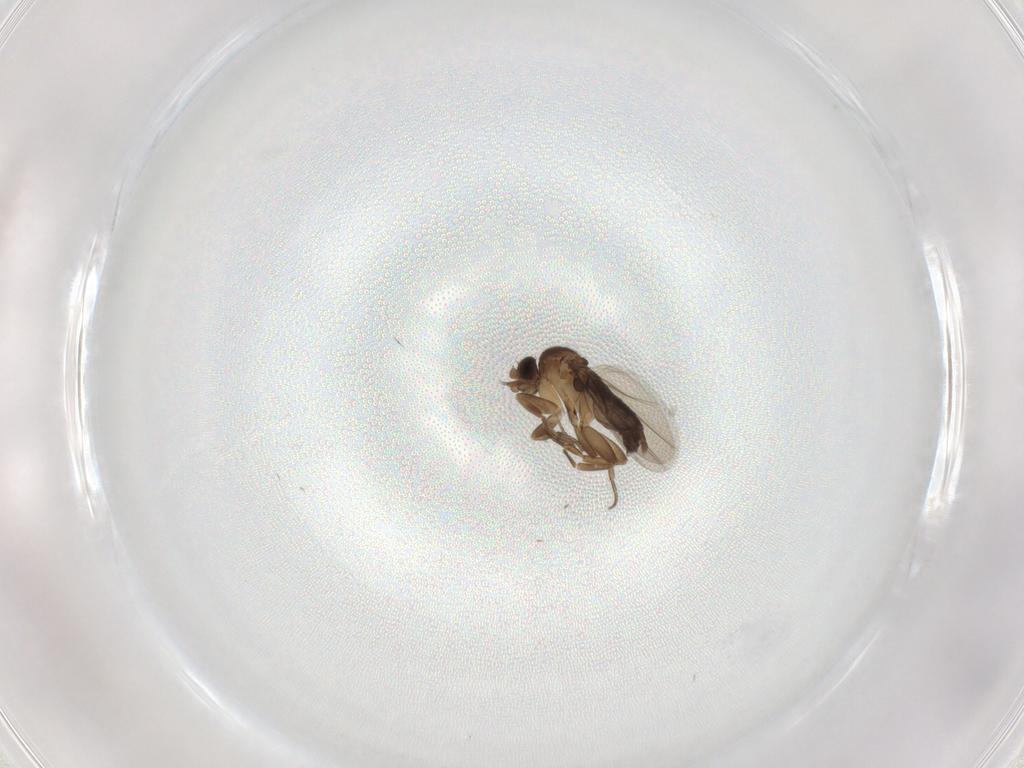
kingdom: Animalia
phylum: Arthropoda
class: Insecta
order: Diptera
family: Phoridae
